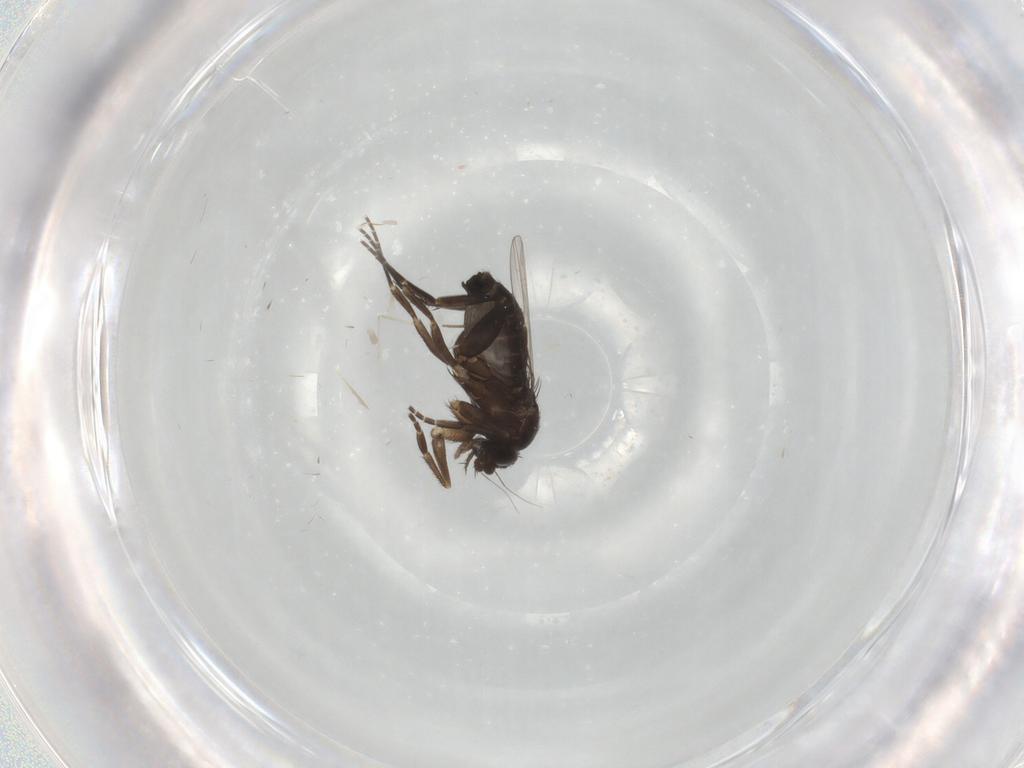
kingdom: Animalia
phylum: Arthropoda
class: Insecta
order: Diptera
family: Phoridae
